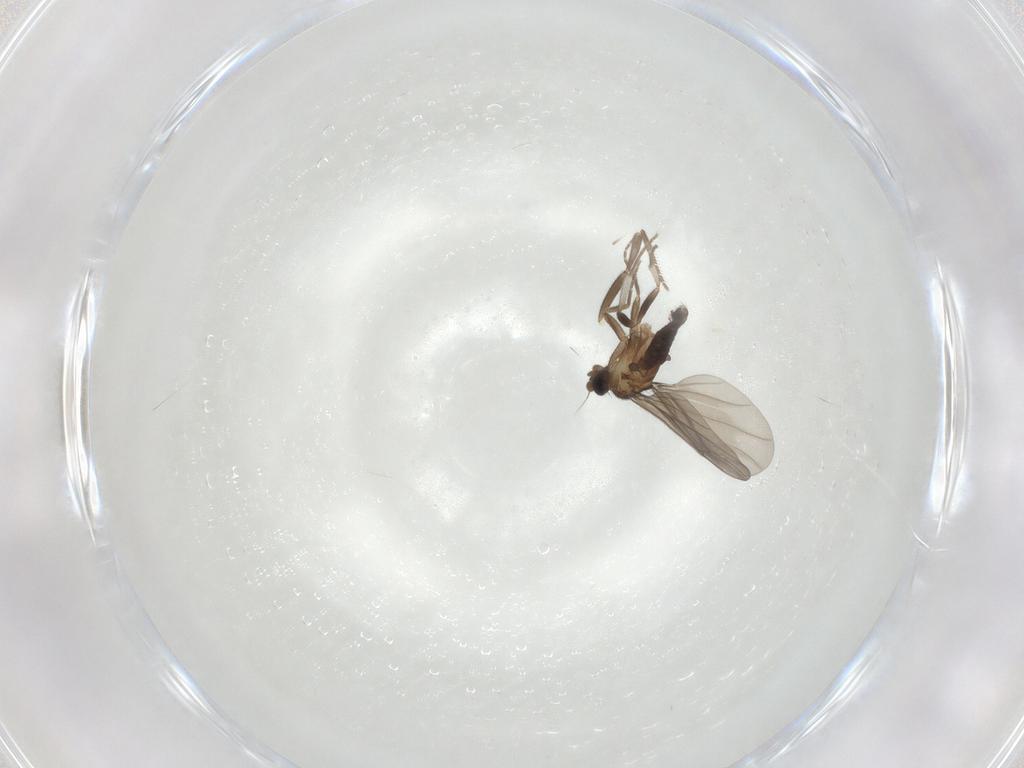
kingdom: Animalia
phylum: Arthropoda
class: Insecta
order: Diptera
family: Phoridae
